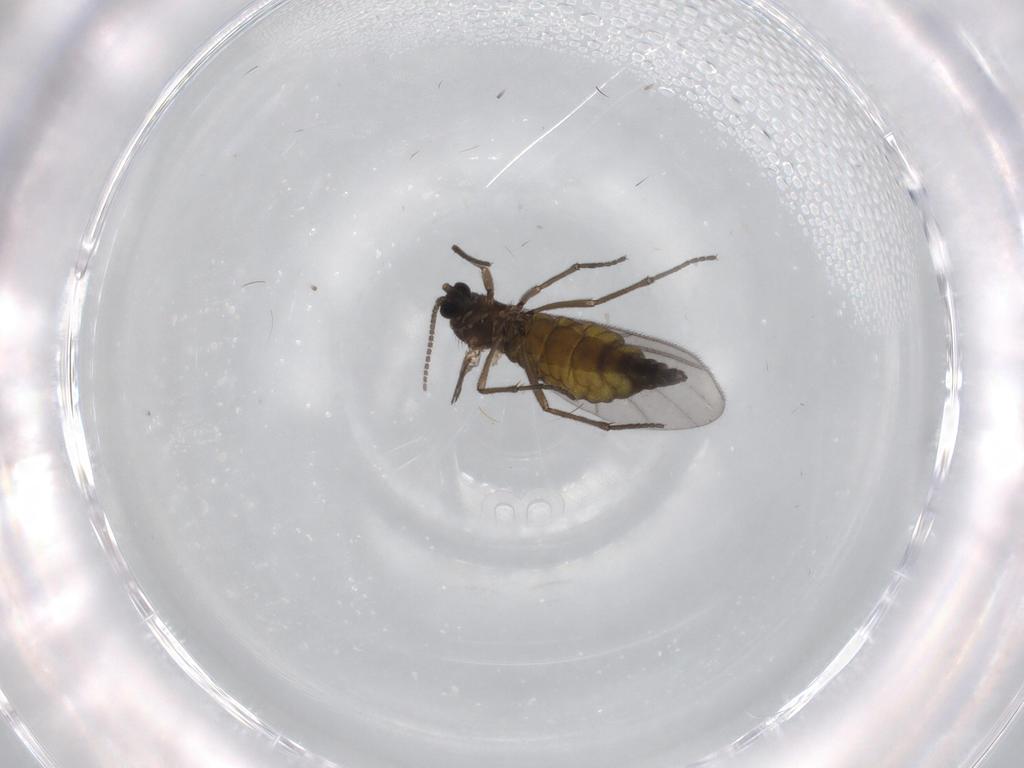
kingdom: Animalia
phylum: Arthropoda
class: Insecta
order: Diptera
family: Sciaridae
